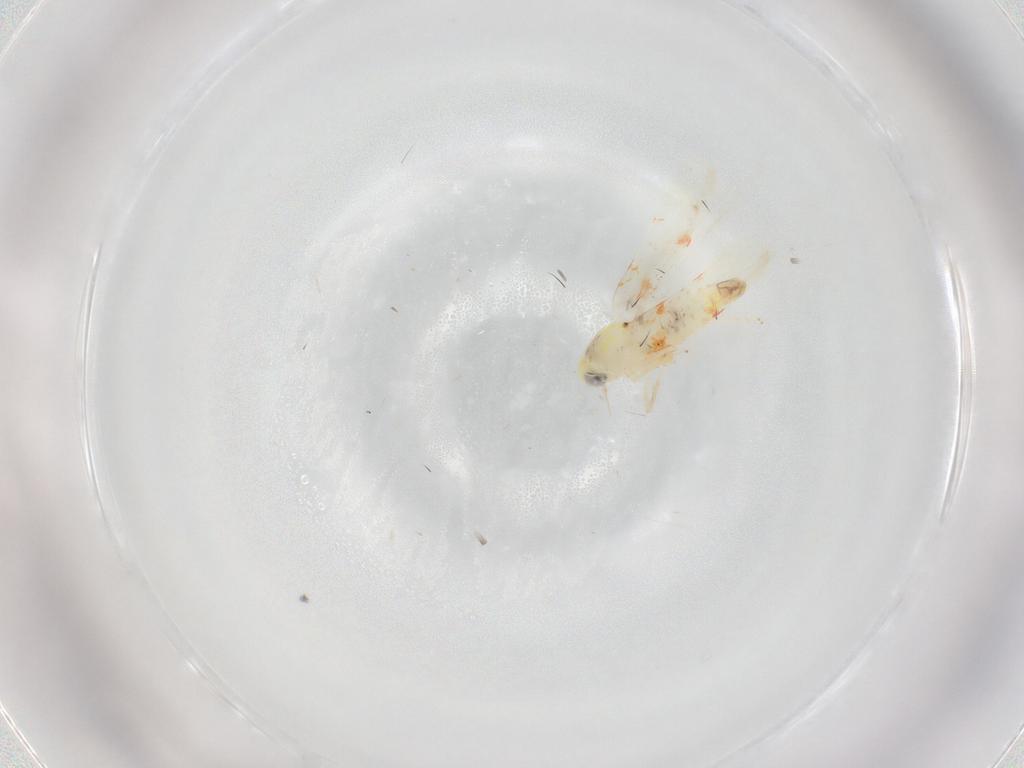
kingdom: Animalia
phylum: Arthropoda
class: Insecta
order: Hemiptera
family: Cicadellidae
